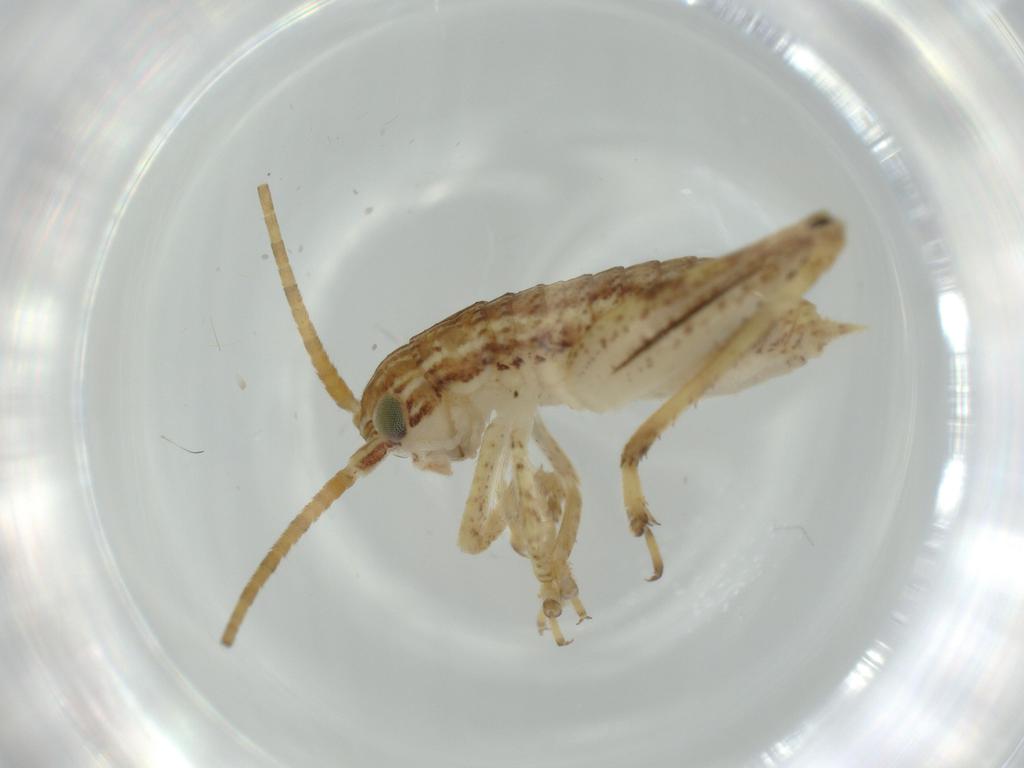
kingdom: Animalia
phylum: Arthropoda
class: Insecta
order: Orthoptera
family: Gryllidae
